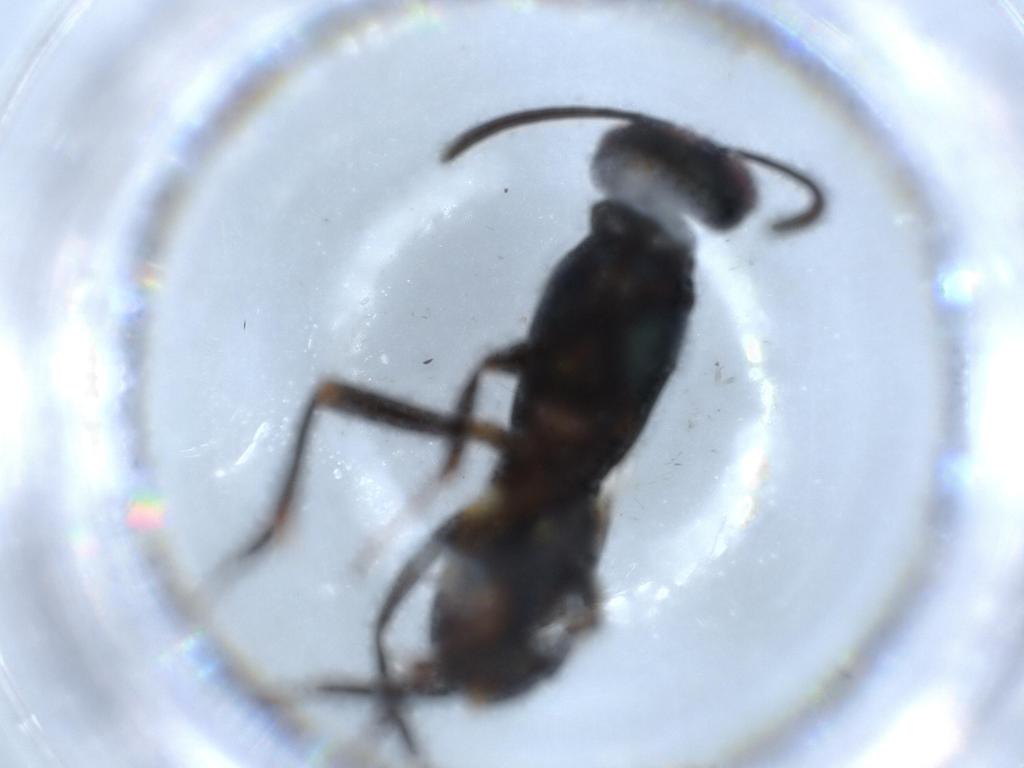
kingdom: Animalia
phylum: Arthropoda
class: Insecta
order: Hymenoptera
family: Eupelmidae
